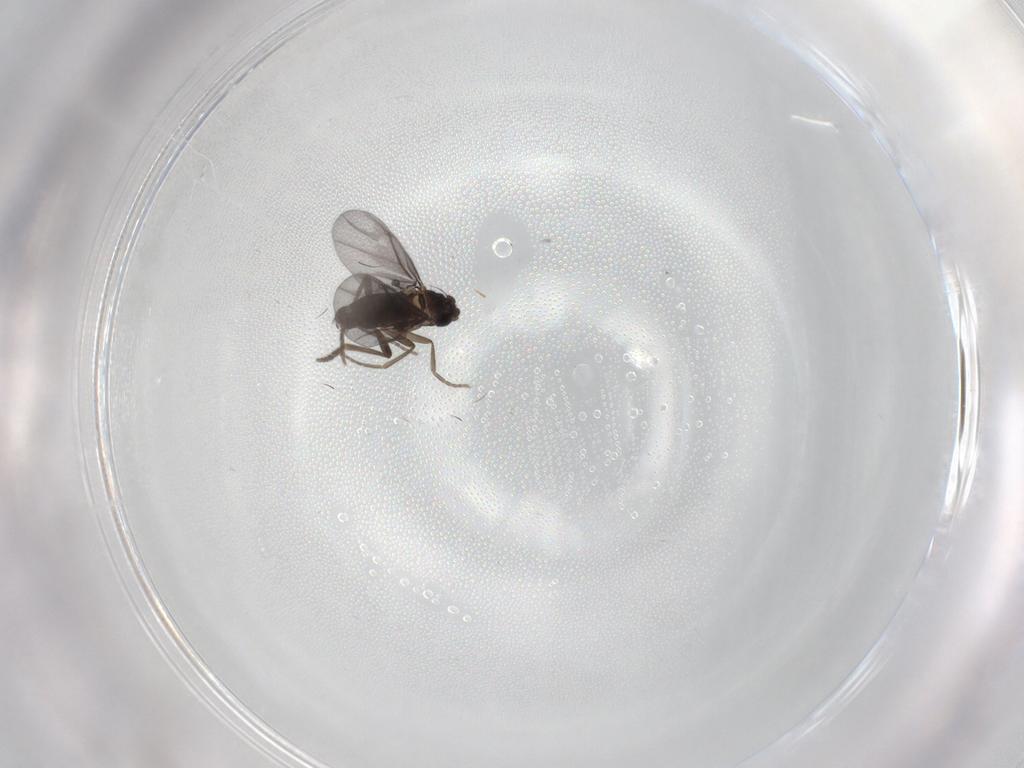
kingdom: Animalia
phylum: Arthropoda
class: Insecta
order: Diptera
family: Phoridae
